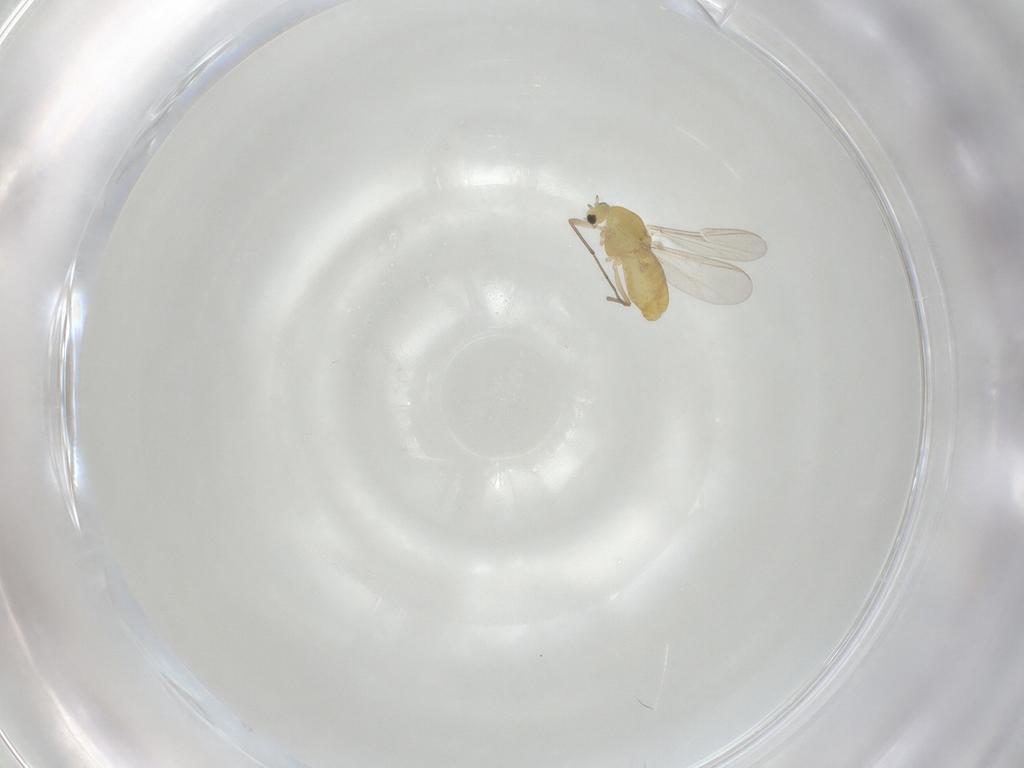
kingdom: Animalia
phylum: Arthropoda
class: Insecta
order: Diptera
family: Chironomidae
